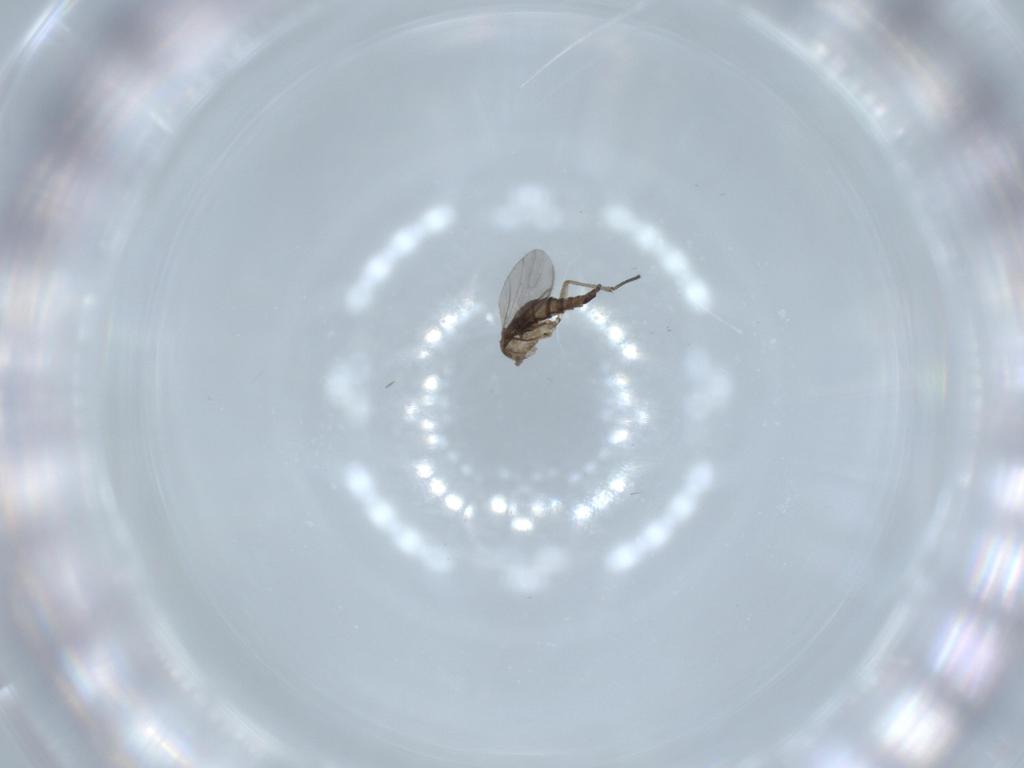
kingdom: Animalia
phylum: Arthropoda
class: Insecta
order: Diptera
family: Sciaridae
